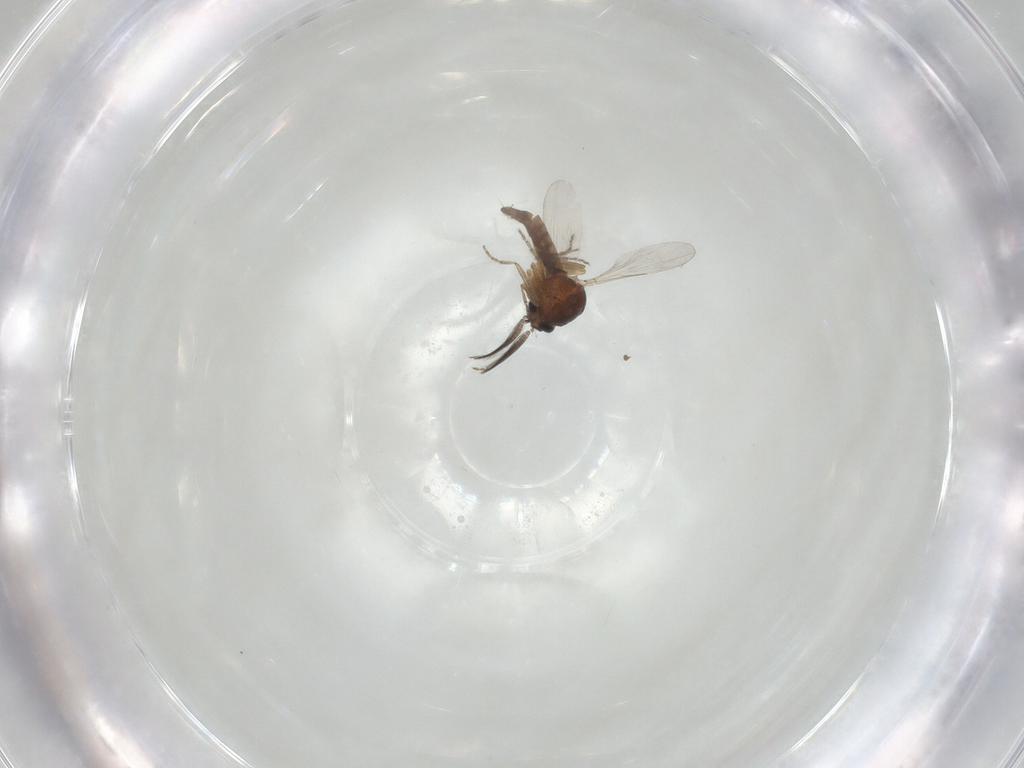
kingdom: Animalia
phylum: Arthropoda
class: Insecta
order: Diptera
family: Ceratopogonidae
